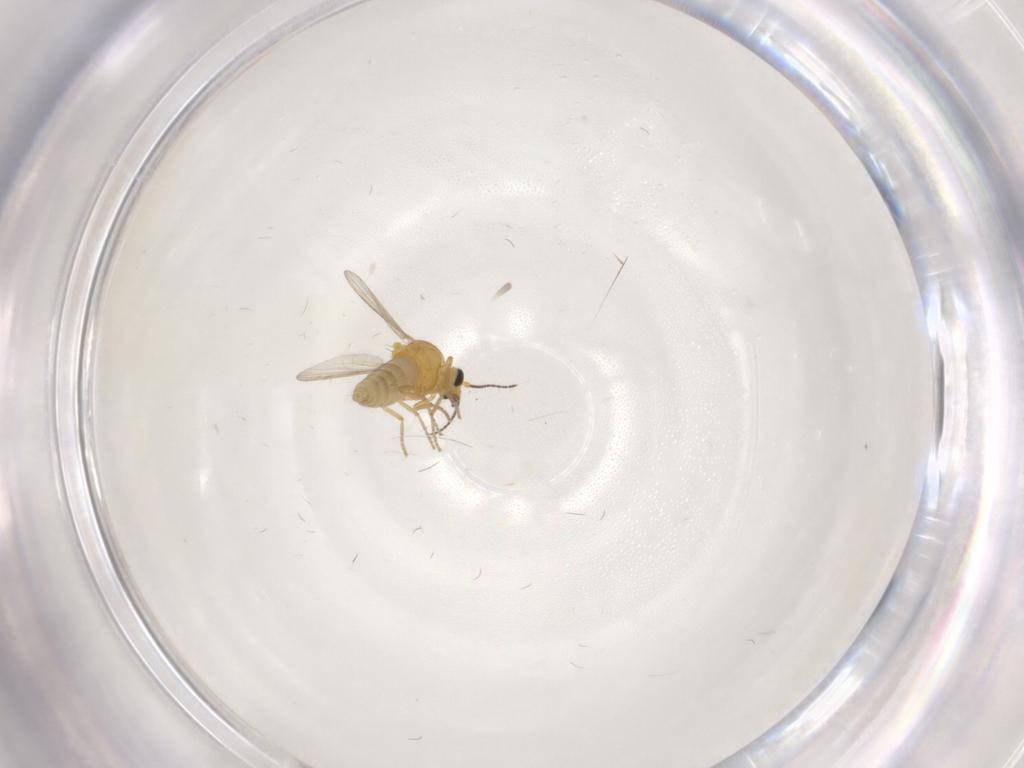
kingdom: Animalia
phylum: Arthropoda
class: Insecta
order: Diptera
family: Ceratopogonidae
